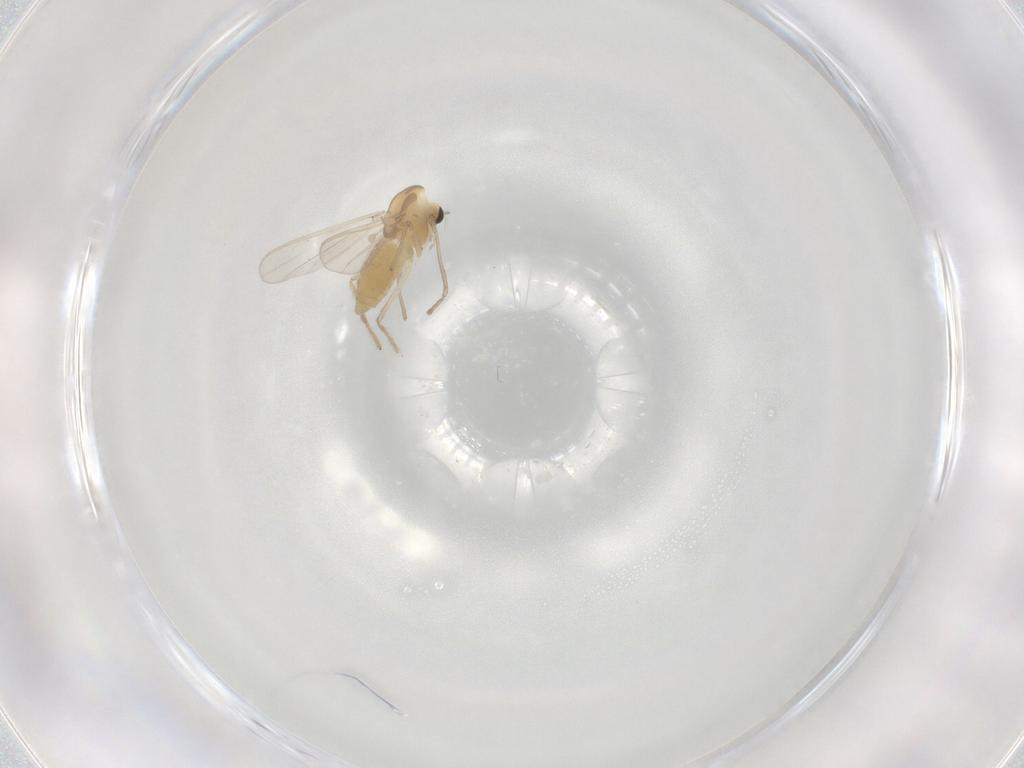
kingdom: Animalia
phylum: Arthropoda
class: Insecta
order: Diptera
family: Chironomidae
